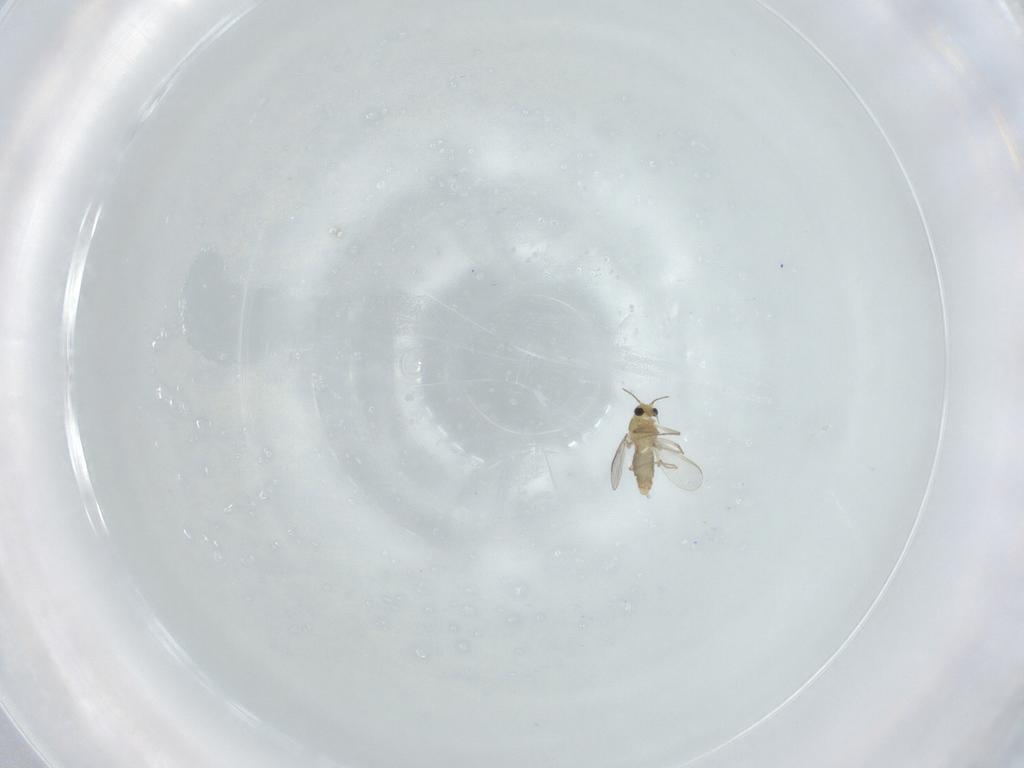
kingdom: Animalia
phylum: Arthropoda
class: Insecta
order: Diptera
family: Chironomidae
